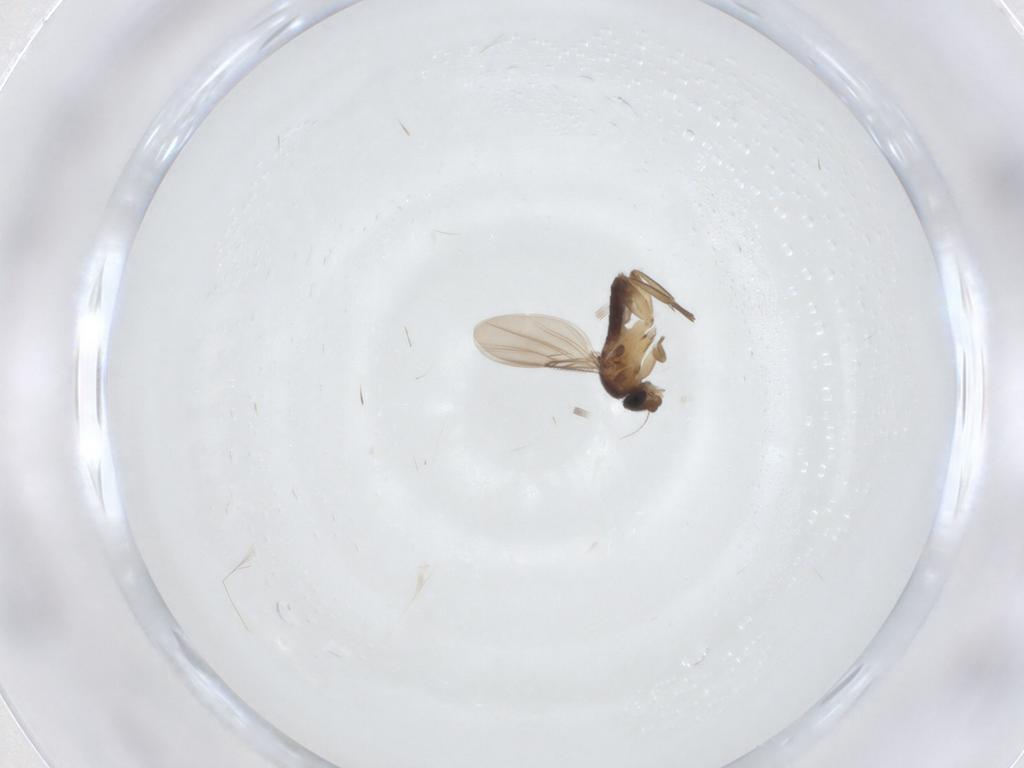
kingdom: Animalia
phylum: Arthropoda
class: Insecta
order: Diptera
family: Phoridae
